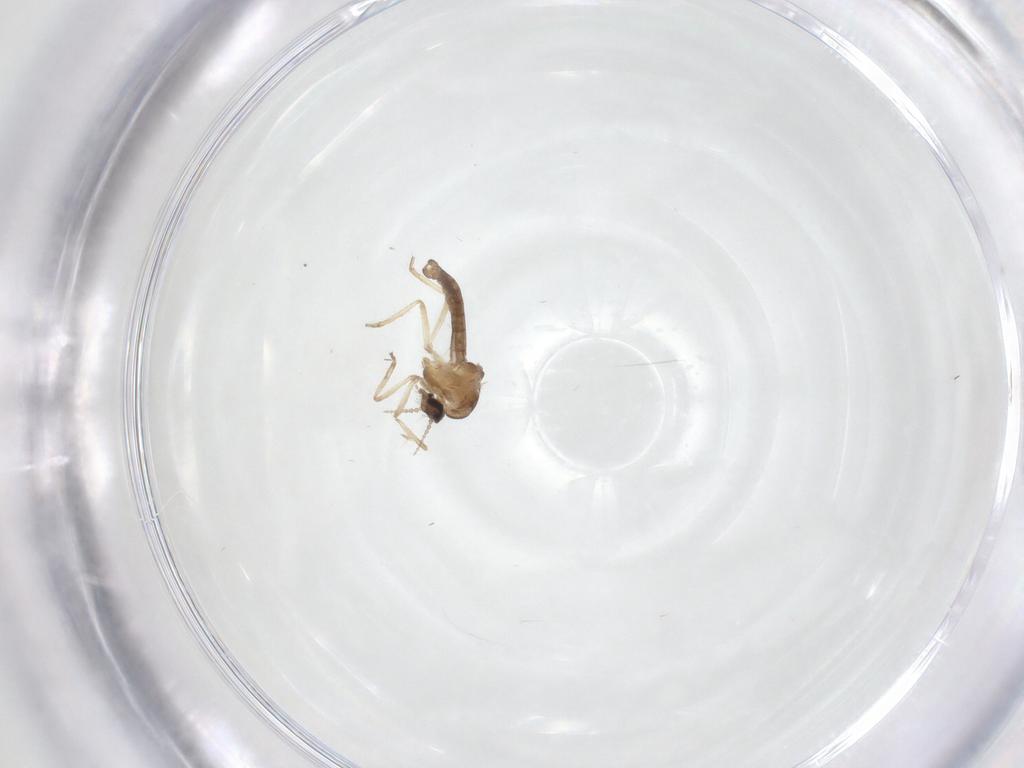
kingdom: Animalia
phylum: Arthropoda
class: Insecta
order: Diptera
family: Ceratopogonidae
